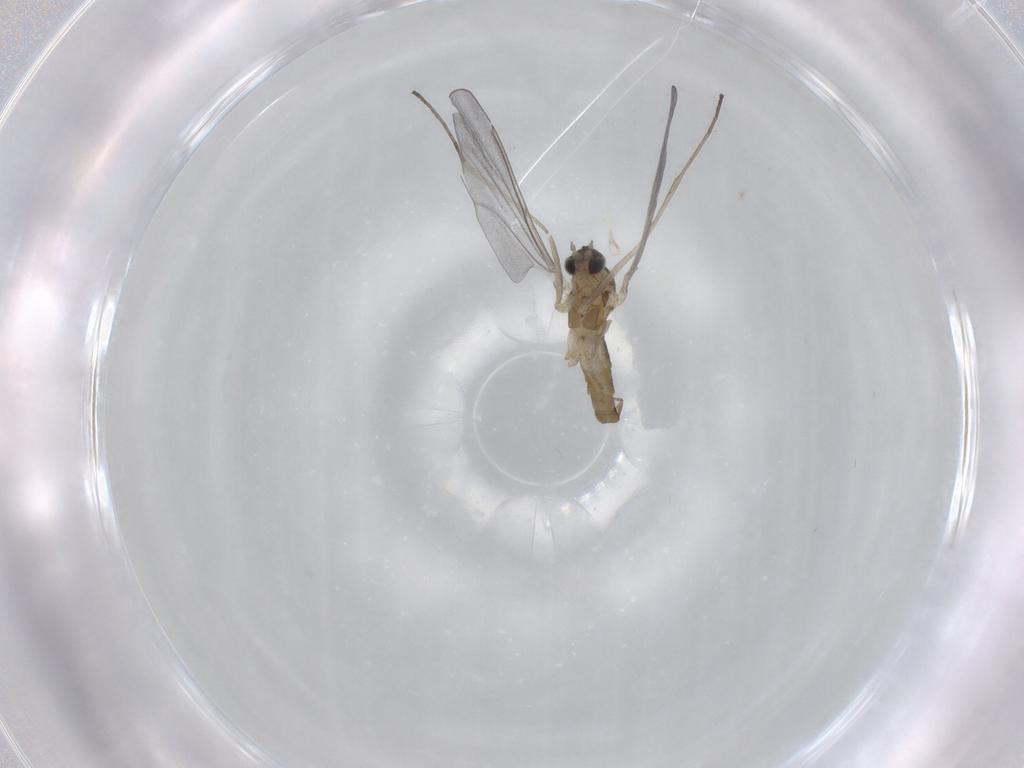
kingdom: Animalia
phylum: Arthropoda
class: Insecta
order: Diptera
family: Cecidomyiidae
